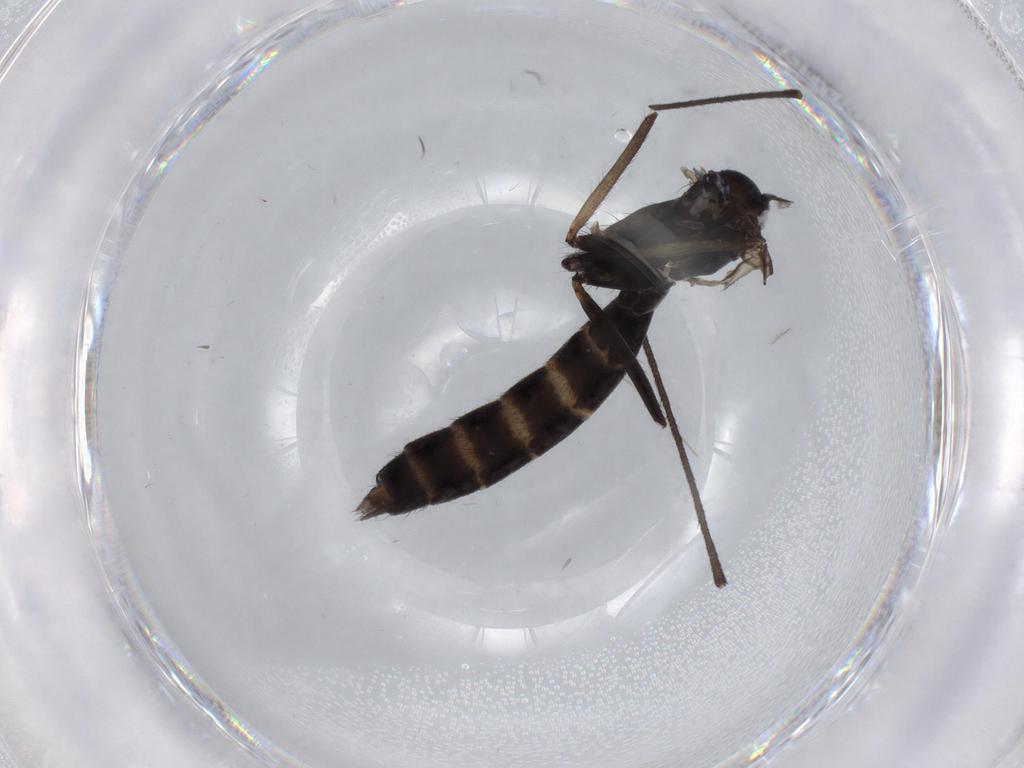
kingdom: Animalia
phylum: Arthropoda
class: Insecta
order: Diptera
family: Ditomyiidae
